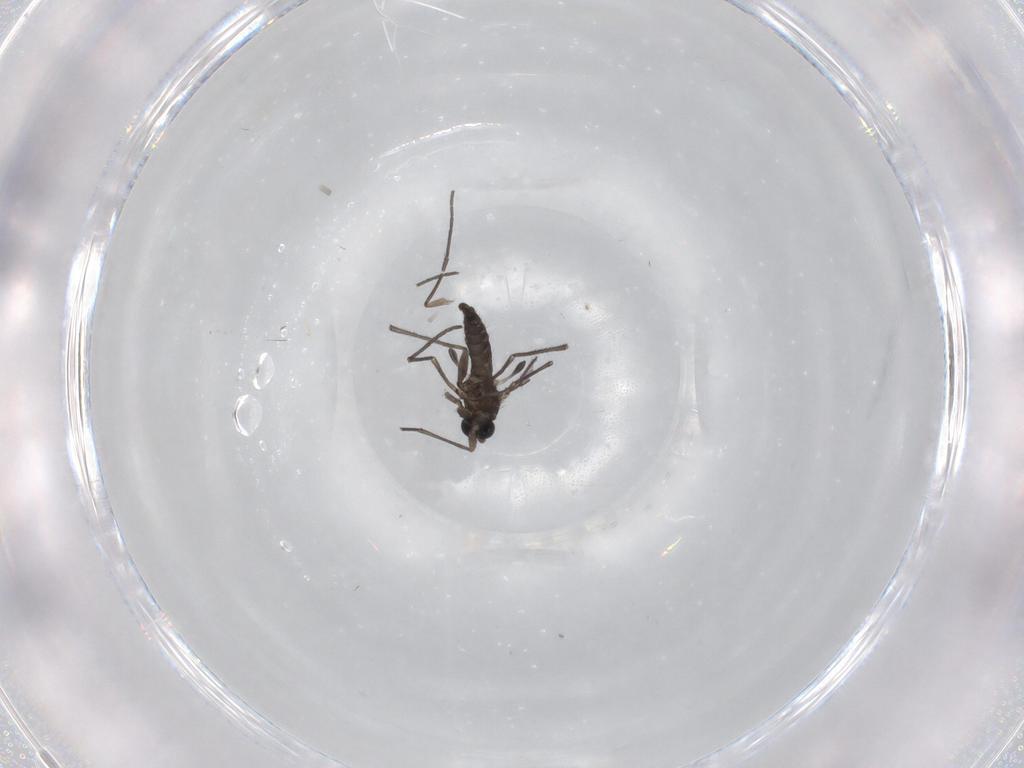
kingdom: Animalia
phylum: Arthropoda
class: Insecta
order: Diptera
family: Sciaridae
